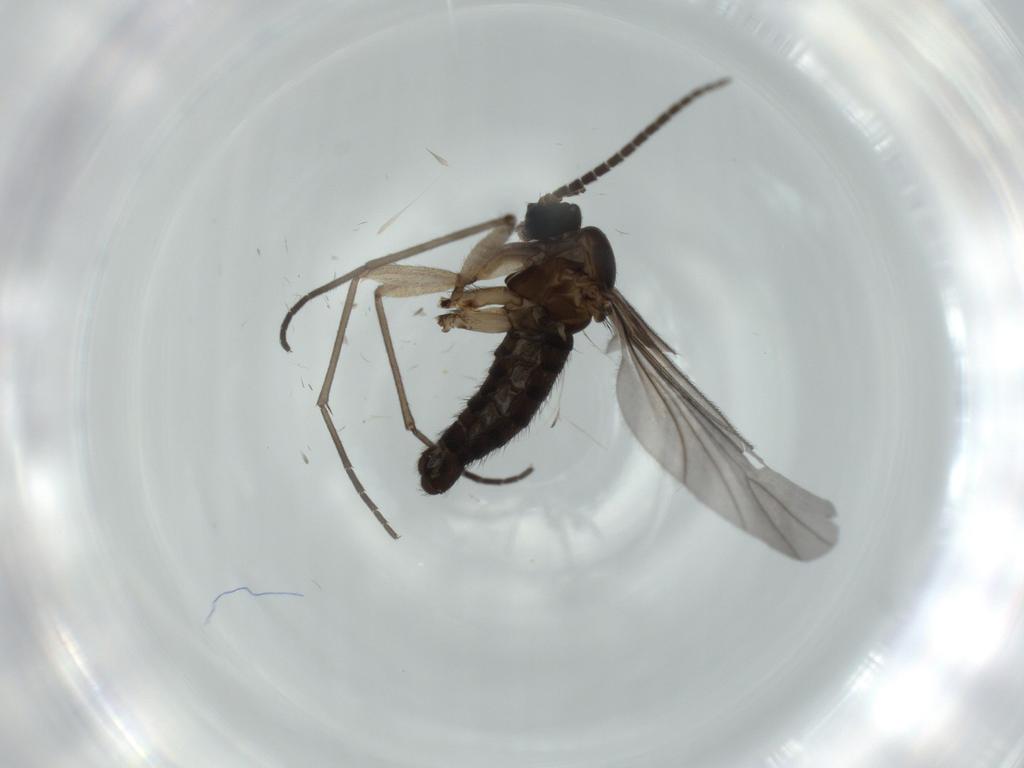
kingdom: Animalia
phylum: Arthropoda
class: Insecta
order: Diptera
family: Sciaridae
